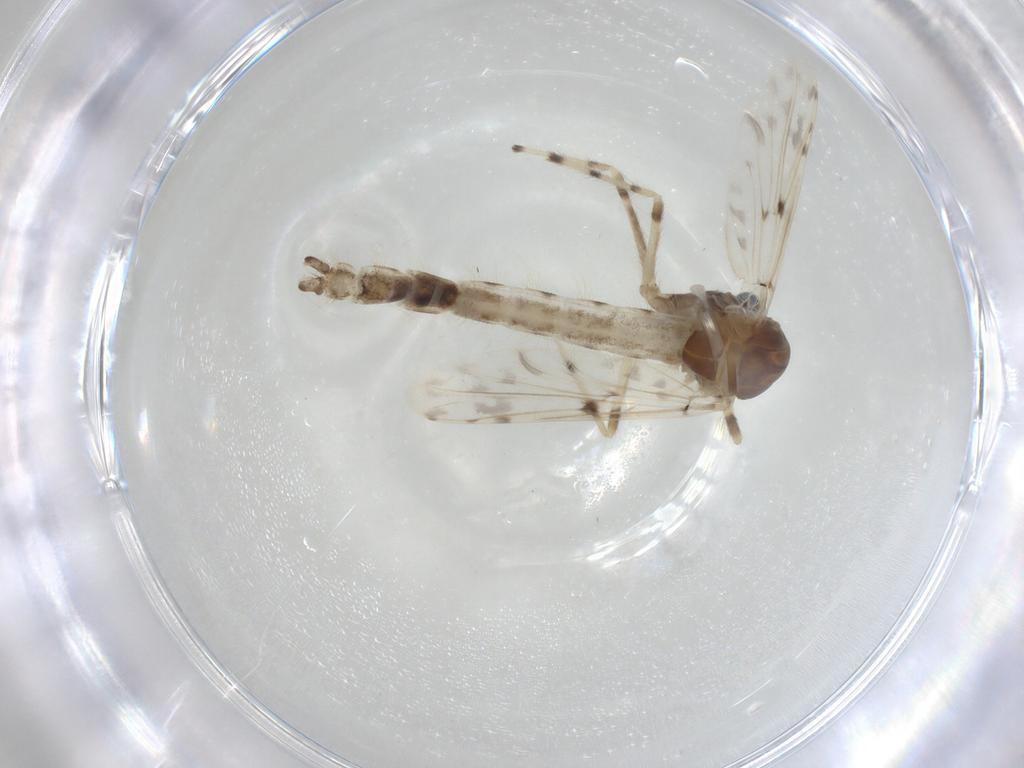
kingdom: Animalia
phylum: Arthropoda
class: Insecta
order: Diptera
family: Chironomidae
